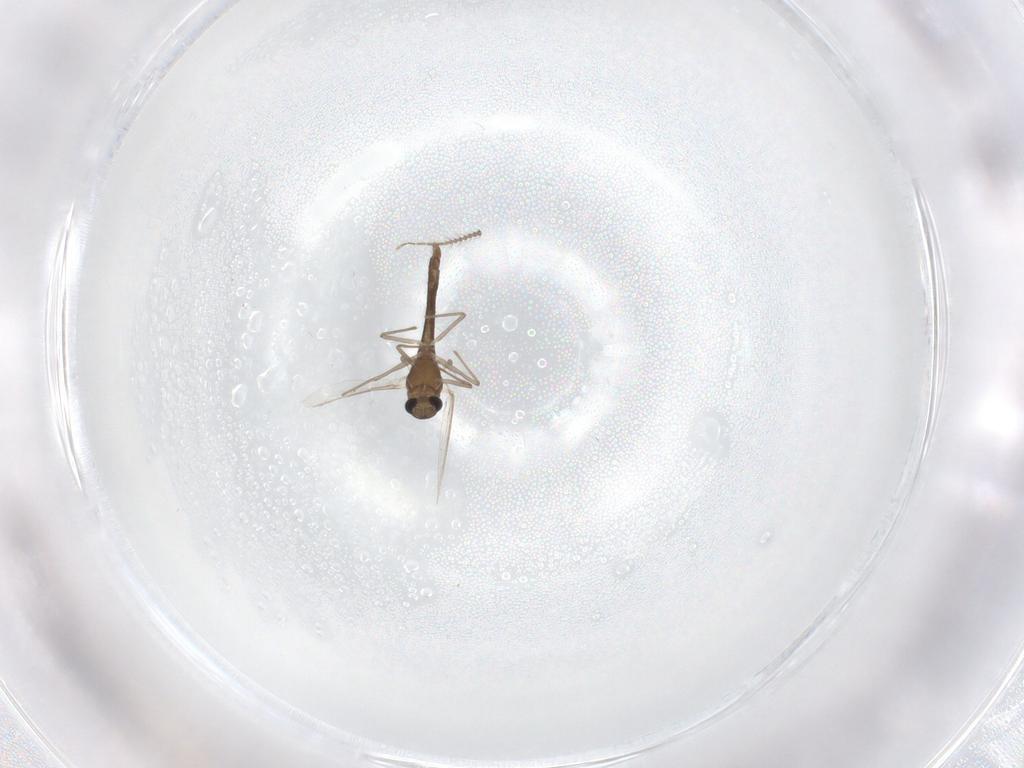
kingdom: Animalia
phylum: Arthropoda
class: Insecta
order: Diptera
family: Chironomidae
